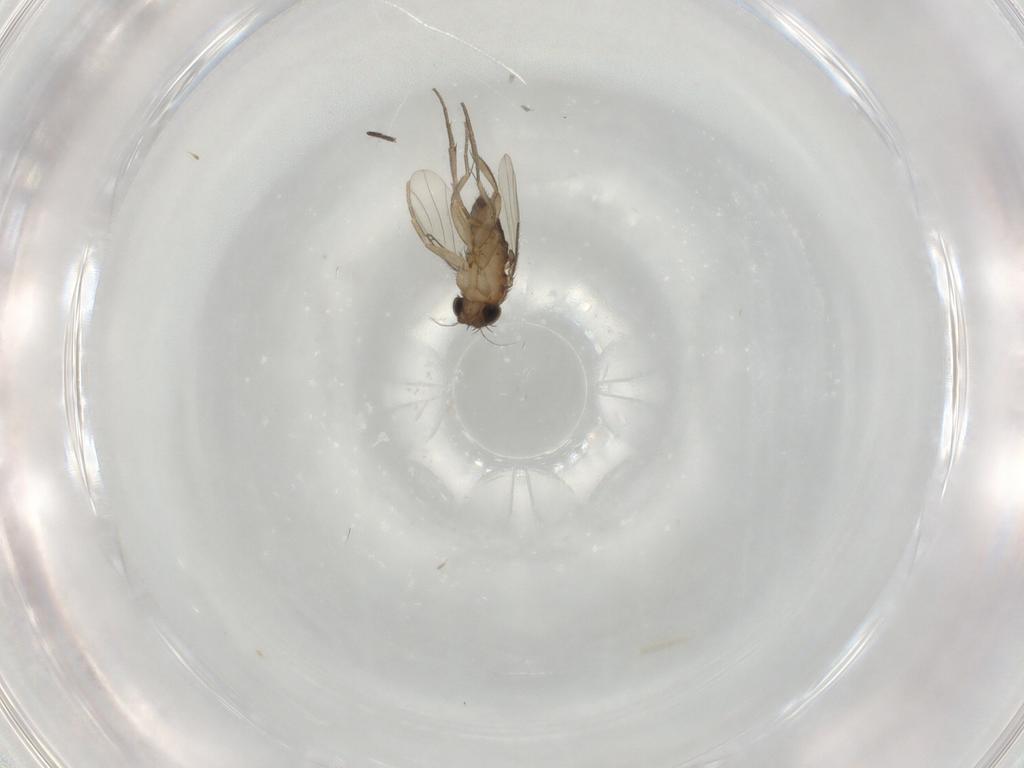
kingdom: Animalia
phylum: Arthropoda
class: Insecta
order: Diptera
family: Phoridae
